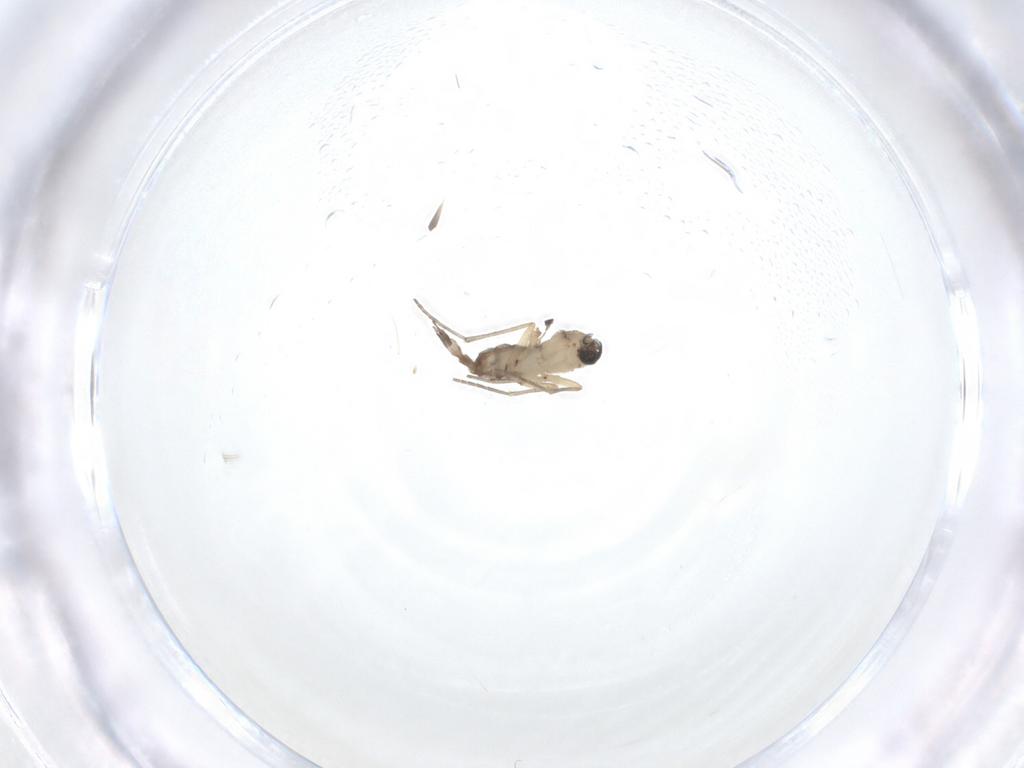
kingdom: Animalia
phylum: Arthropoda
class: Insecta
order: Diptera
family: Sciaridae
